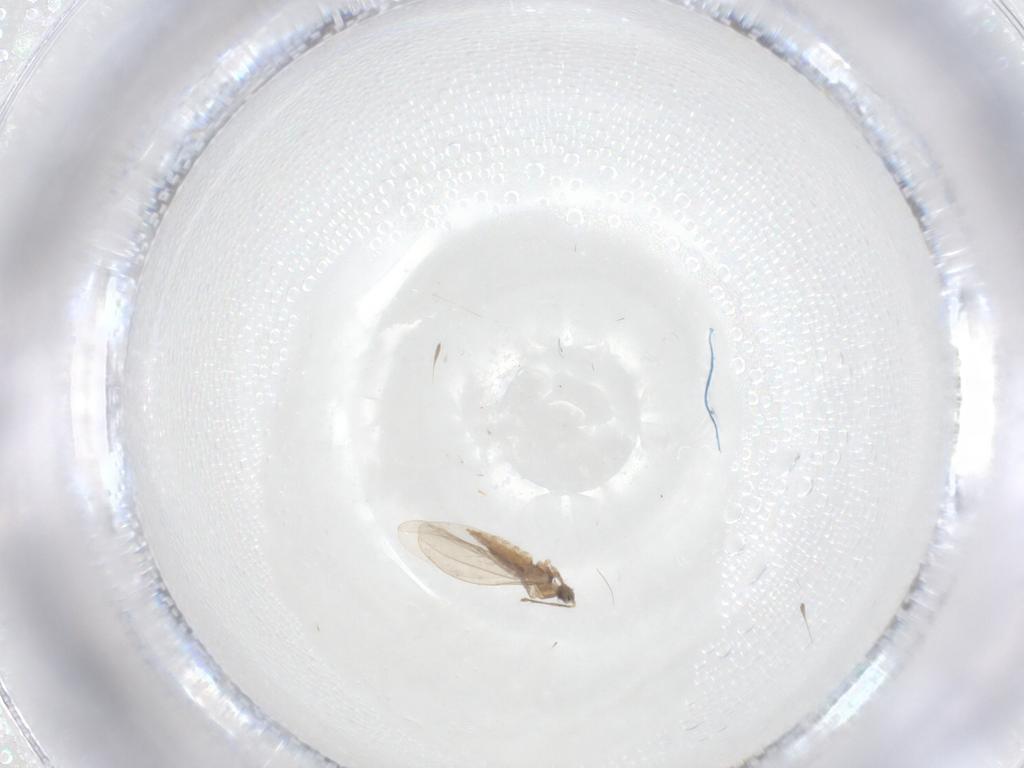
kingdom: Animalia
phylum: Arthropoda
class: Insecta
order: Diptera
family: Cecidomyiidae
